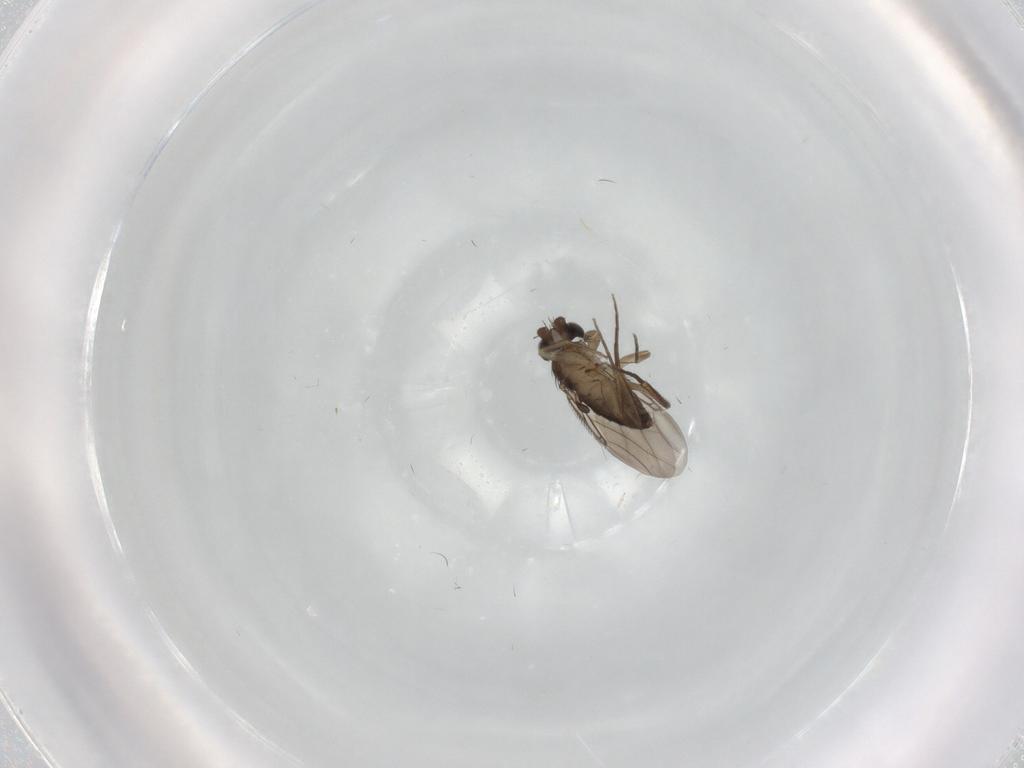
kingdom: Animalia
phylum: Arthropoda
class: Insecta
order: Diptera
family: Phoridae
